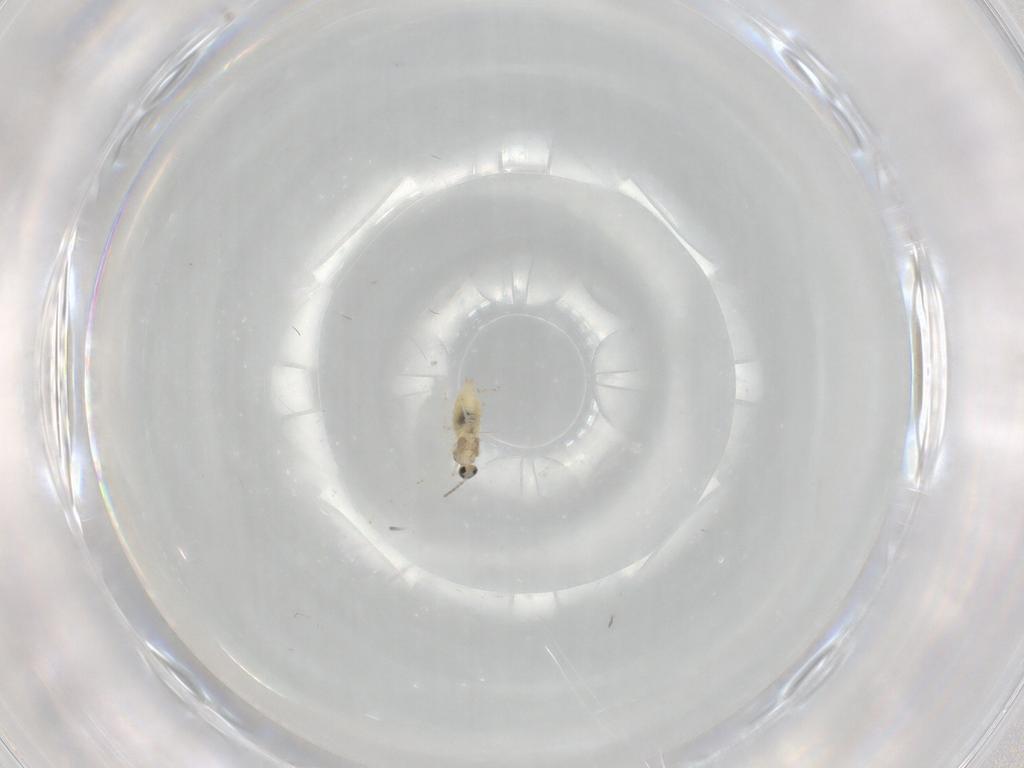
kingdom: Animalia
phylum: Arthropoda
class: Insecta
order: Diptera
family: Cecidomyiidae
